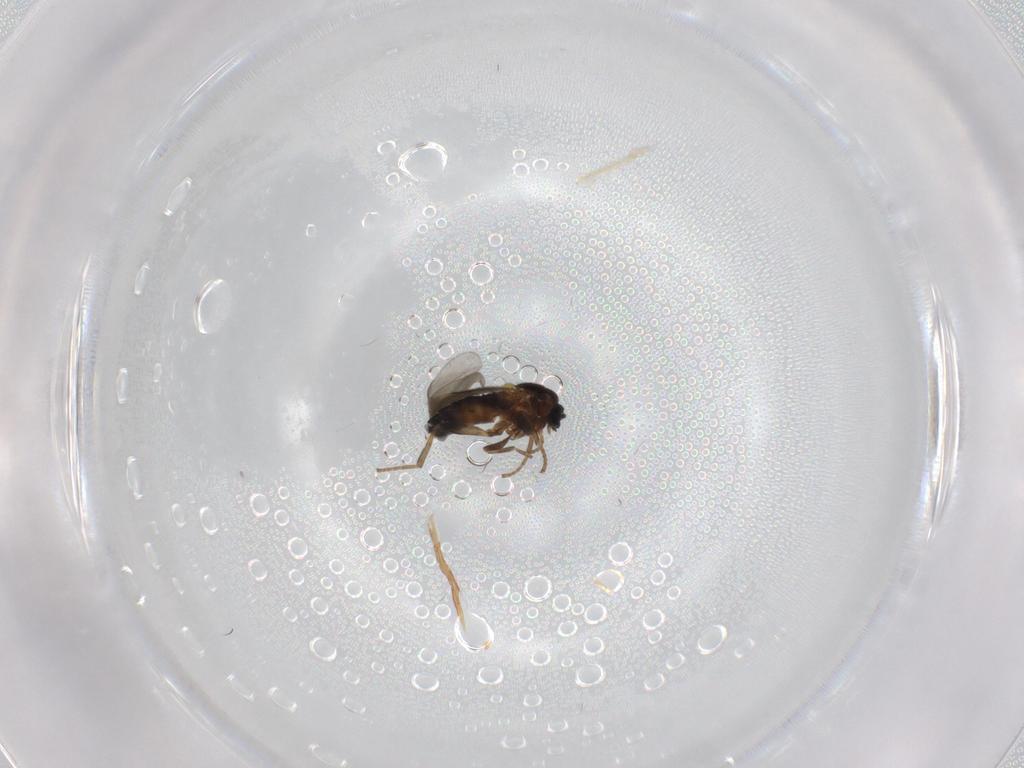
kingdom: Animalia
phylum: Arthropoda
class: Insecta
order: Diptera
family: Scatopsidae
